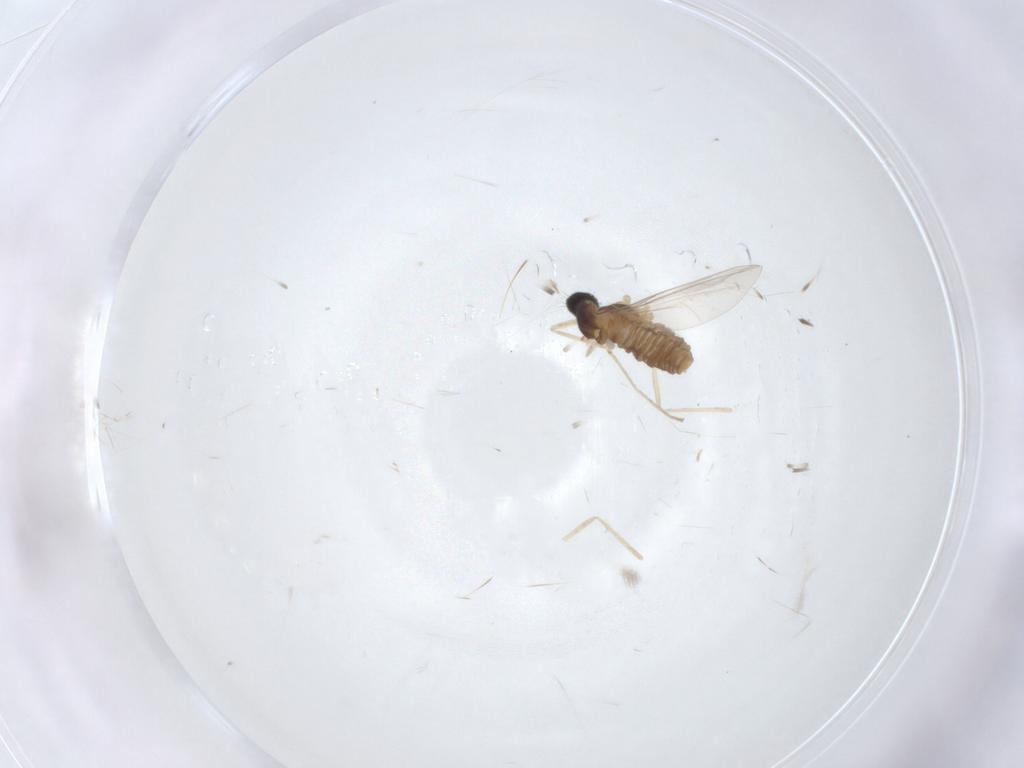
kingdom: Animalia
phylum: Arthropoda
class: Insecta
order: Diptera
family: Cecidomyiidae
